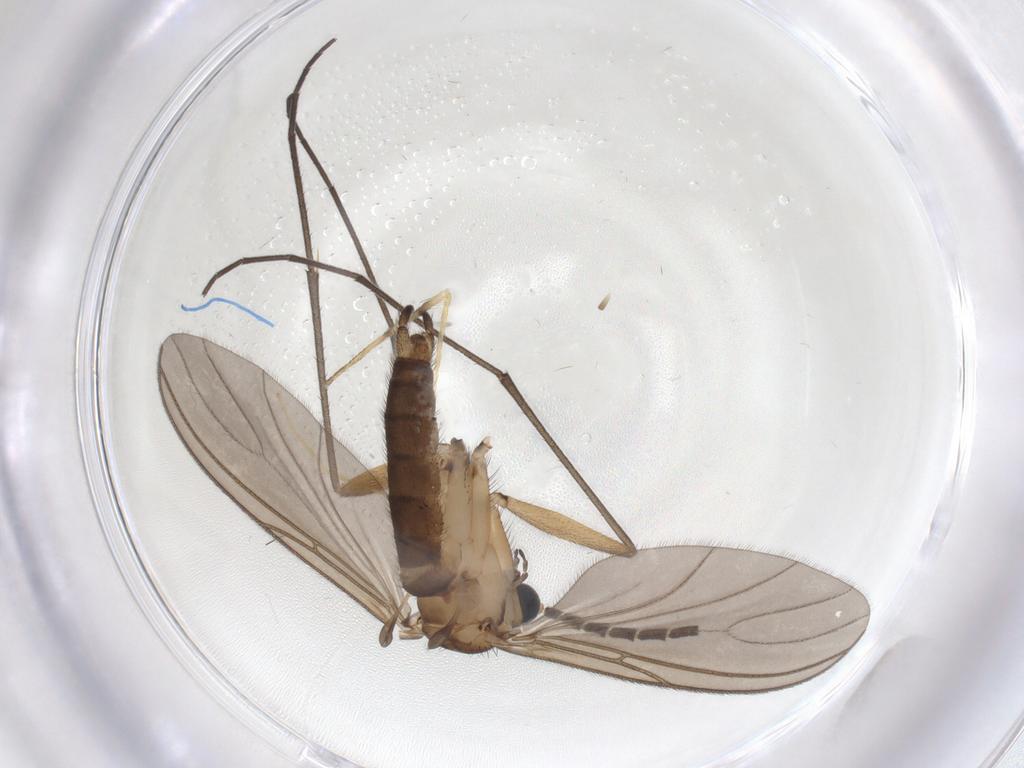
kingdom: Animalia
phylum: Arthropoda
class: Insecta
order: Diptera
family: Sciaridae
